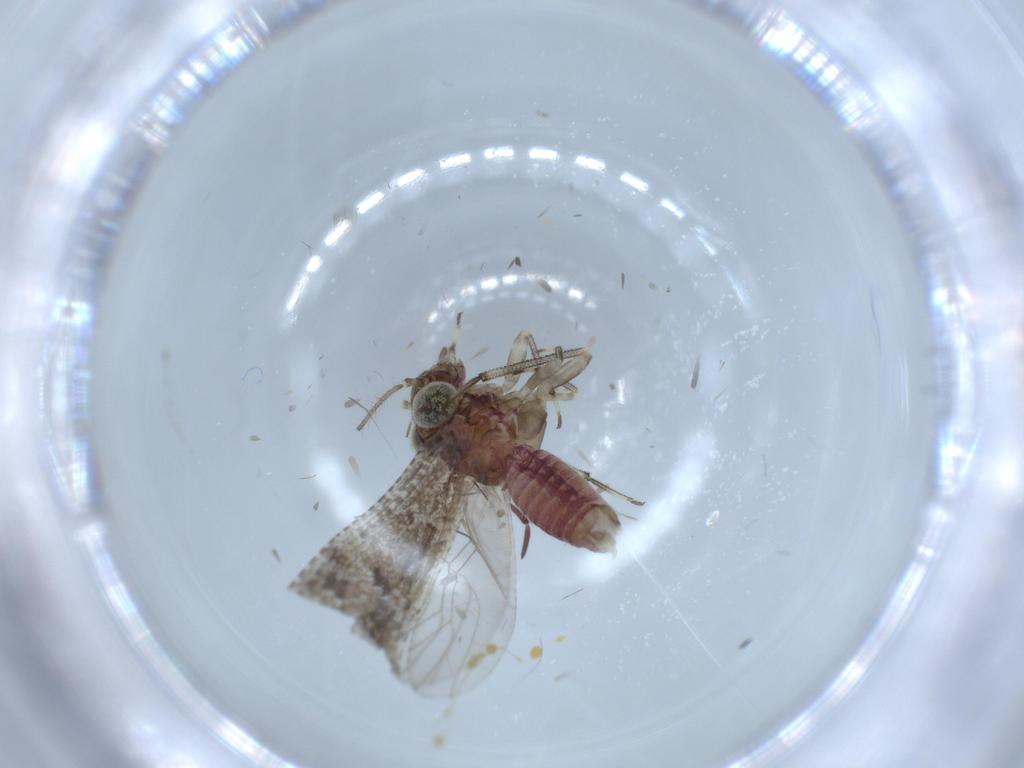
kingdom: Animalia
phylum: Arthropoda
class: Insecta
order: Psocodea
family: Psocidae
